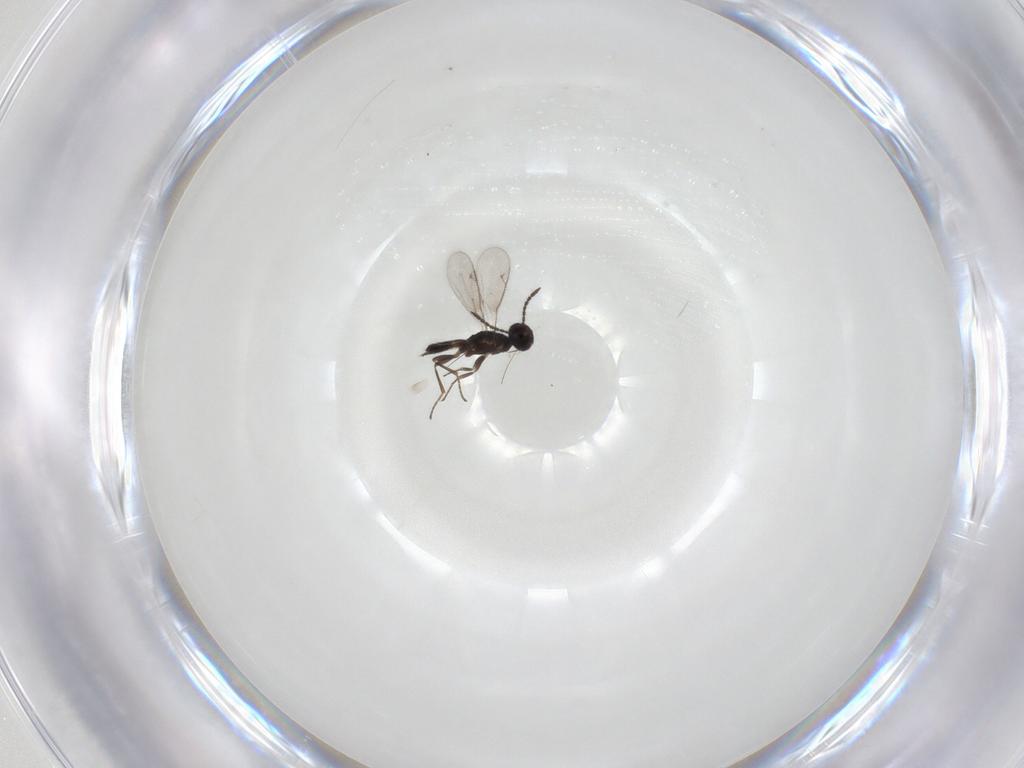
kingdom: Animalia
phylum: Arthropoda
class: Insecta
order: Hymenoptera
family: Eupelmidae
